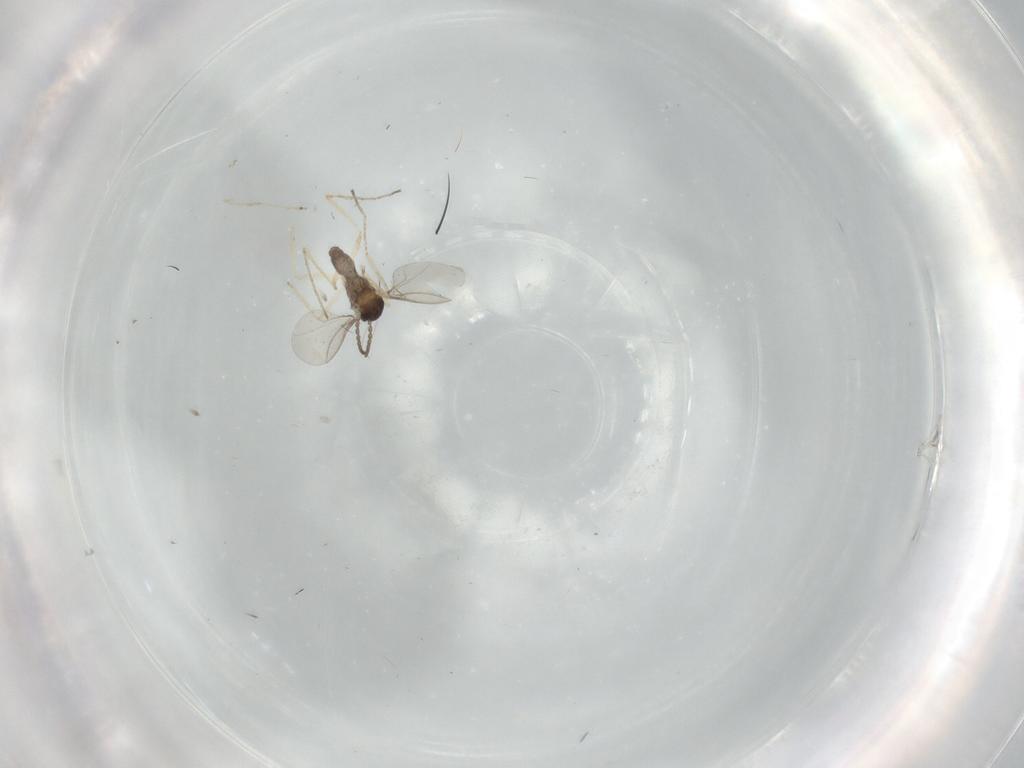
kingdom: Animalia
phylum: Arthropoda
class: Insecta
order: Diptera
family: Cecidomyiidae
